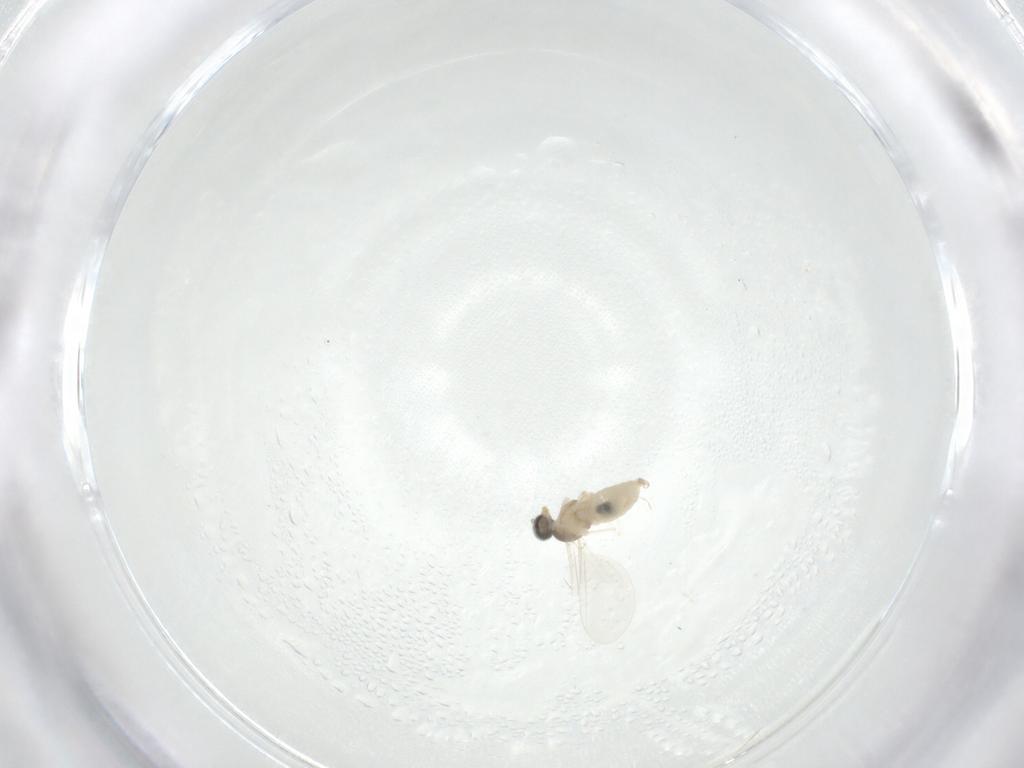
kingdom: Animalia
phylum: Arthropoda
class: Insecta
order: Diptera
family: Cecidomyiidae
